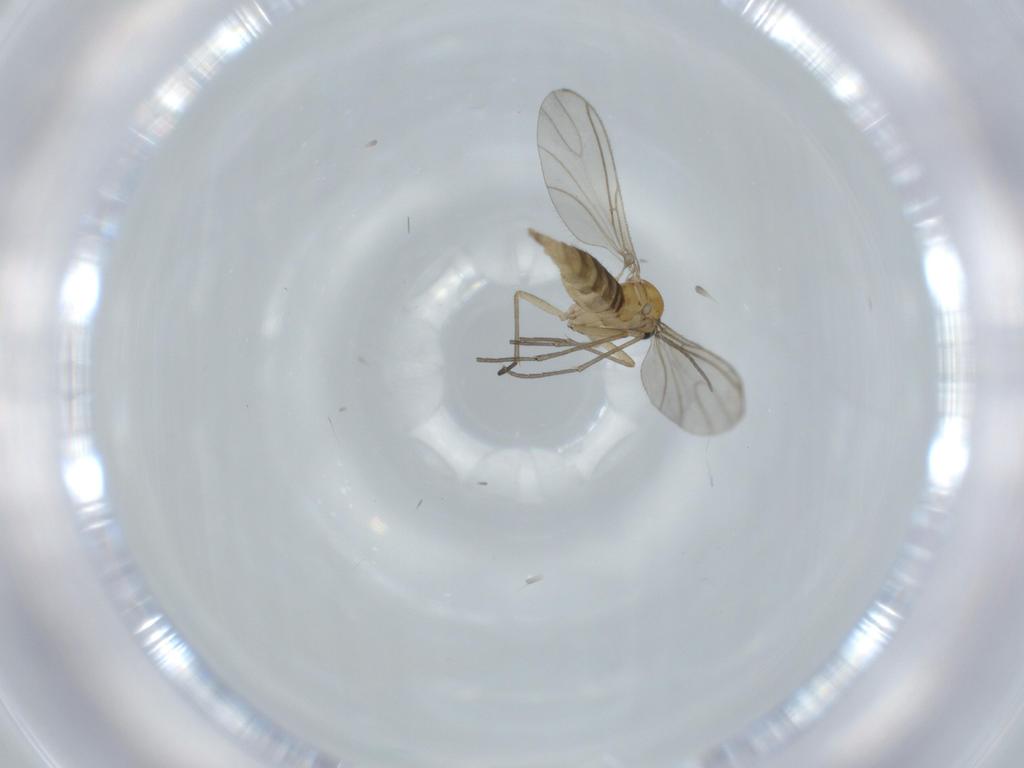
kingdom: Animalia
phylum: Arthropoda
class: Insecta
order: Diptera
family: Sciaridae
